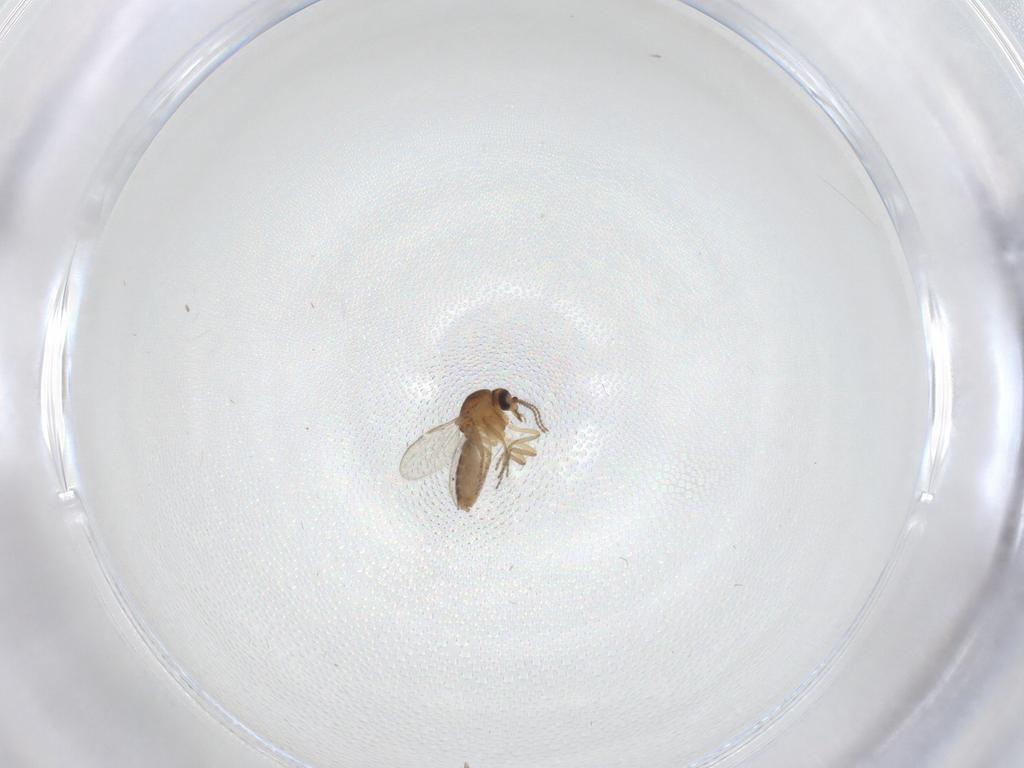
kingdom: Animalia
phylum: Arthropoda
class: Insecta
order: Diptera
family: Ceratopogonidae
